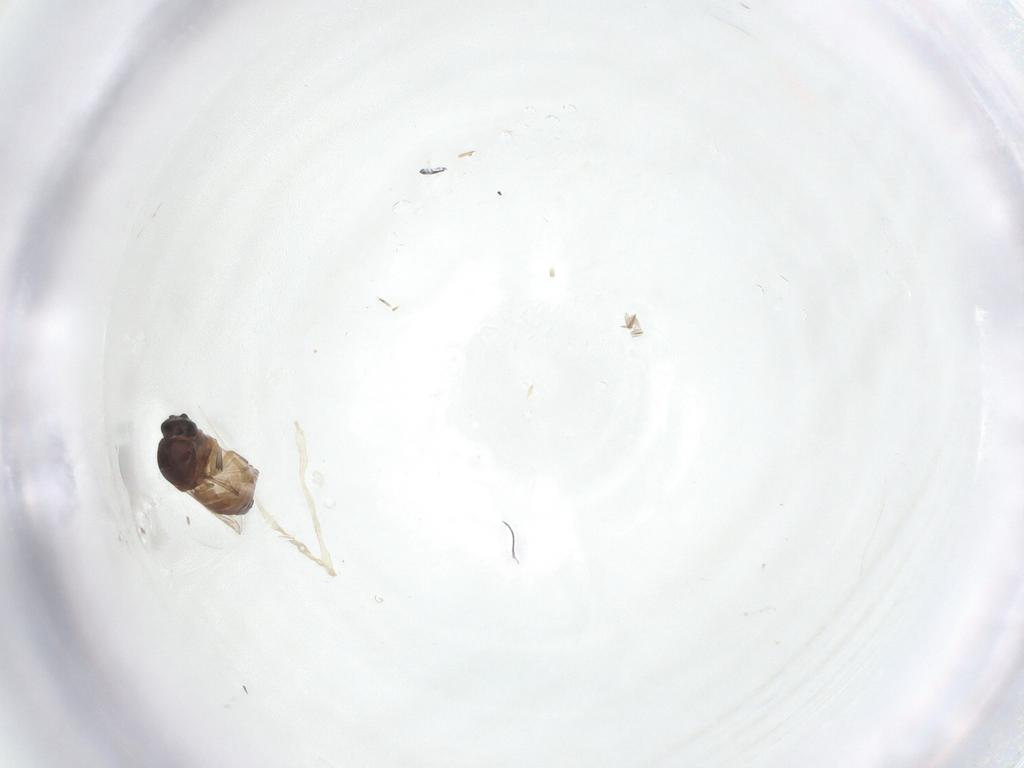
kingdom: Animalia
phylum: Arthropoda
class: Insecta
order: Diptera
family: Ceratopogonidae
